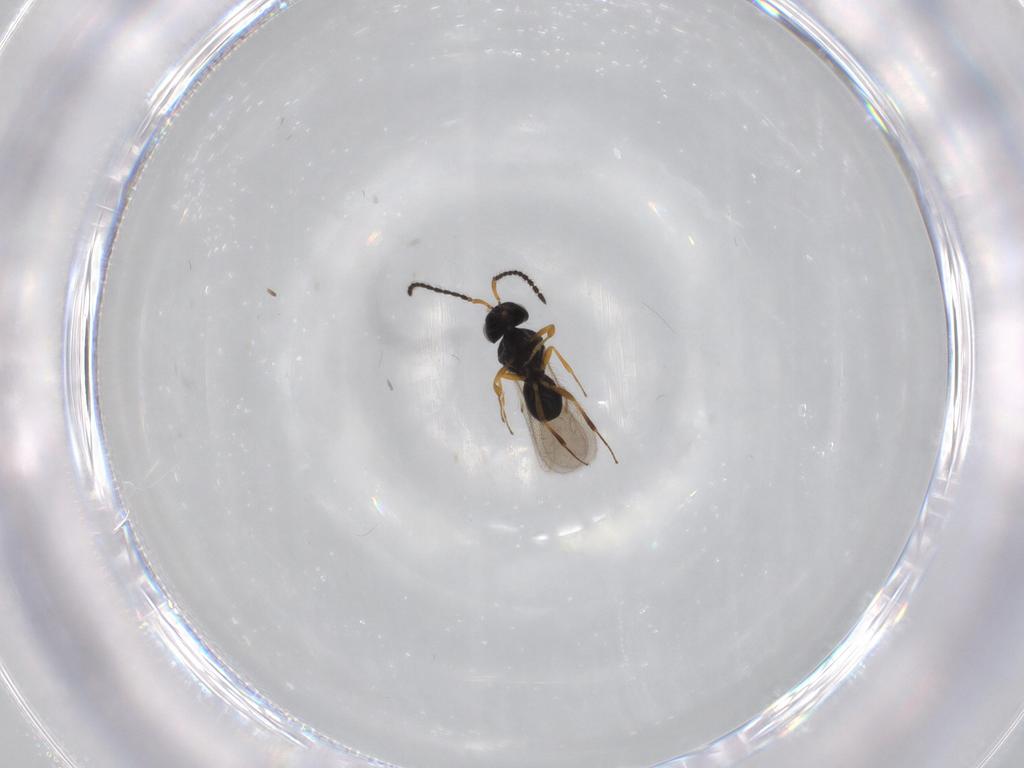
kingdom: Animalia
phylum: Arthropoda
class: Insecta
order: Hymenoptera
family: Scelionidae
